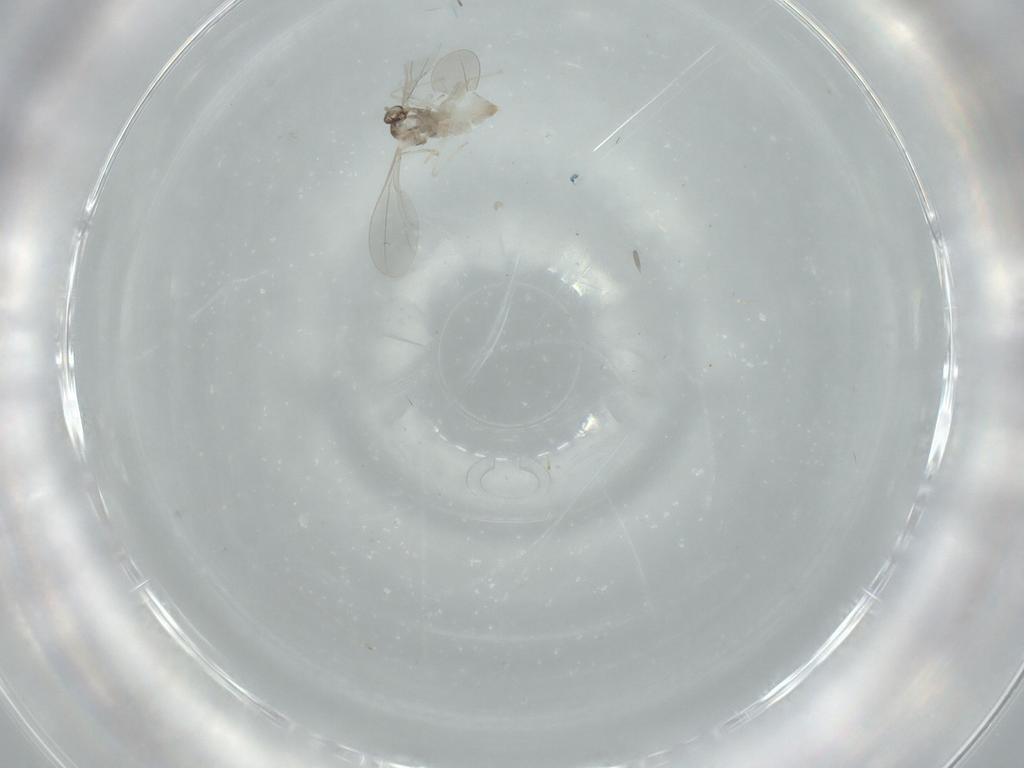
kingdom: Animalia
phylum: Arthropoda
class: Insecta
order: Diptera
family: Cecidomyiidae
